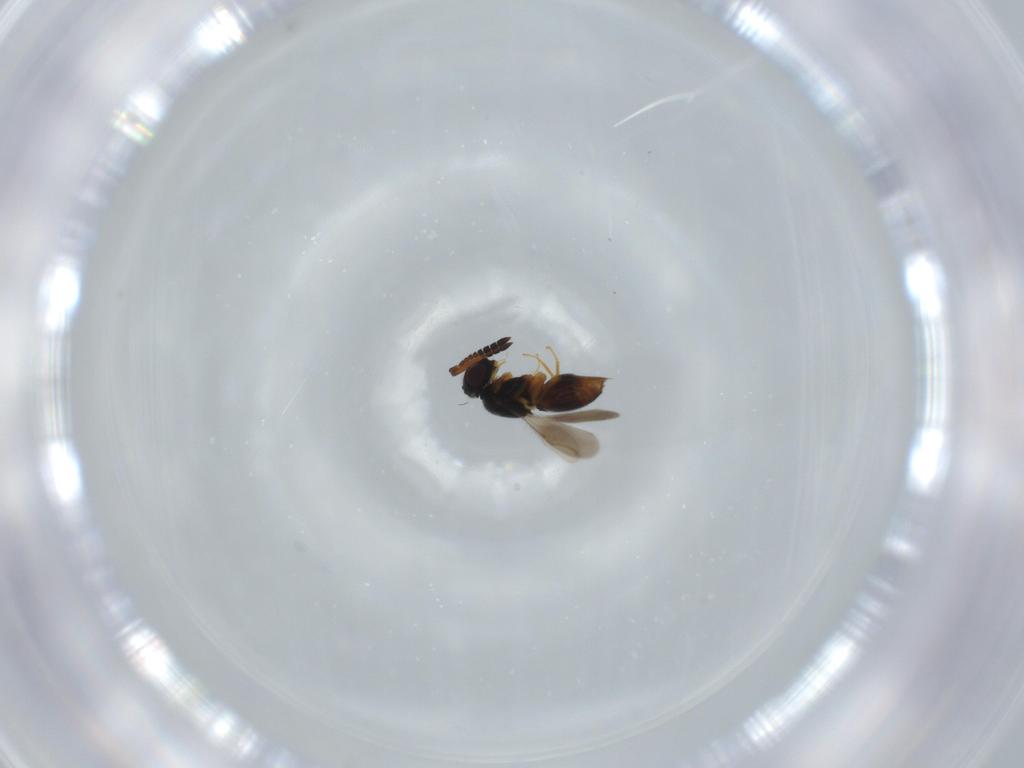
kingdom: Animalia
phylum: Arthropoda
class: Insecta
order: Hymenoptera
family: Ceraphronidae
